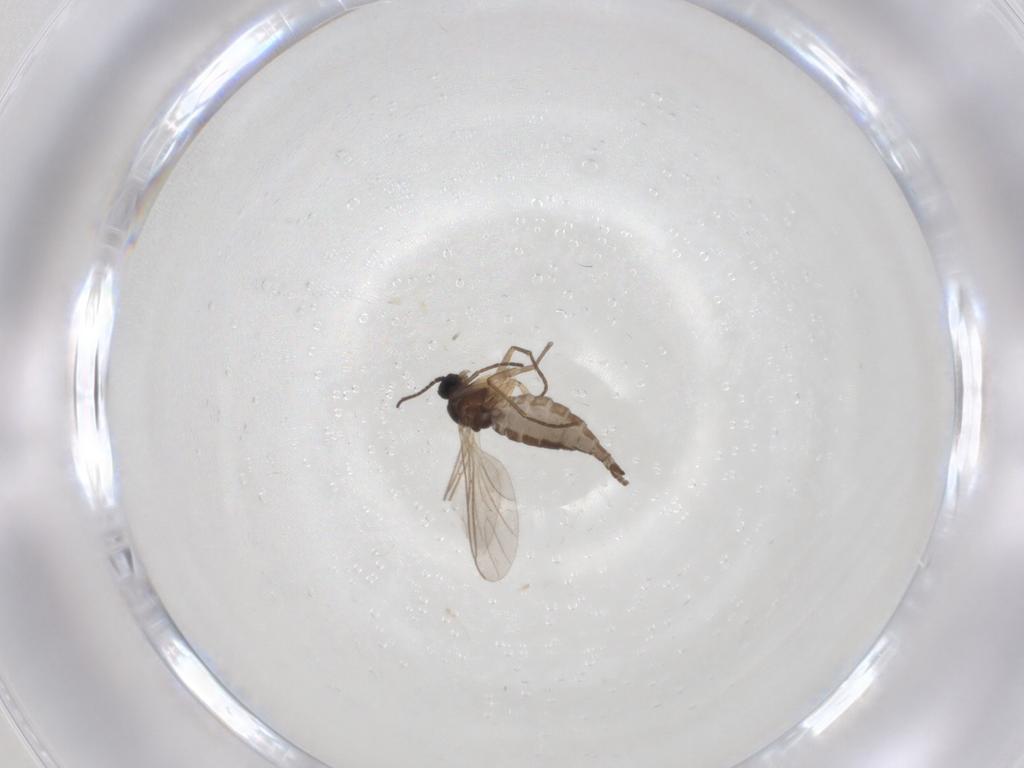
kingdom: Animalia
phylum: Arthropoda
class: Insecta
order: Diptera
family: Sciaridae
